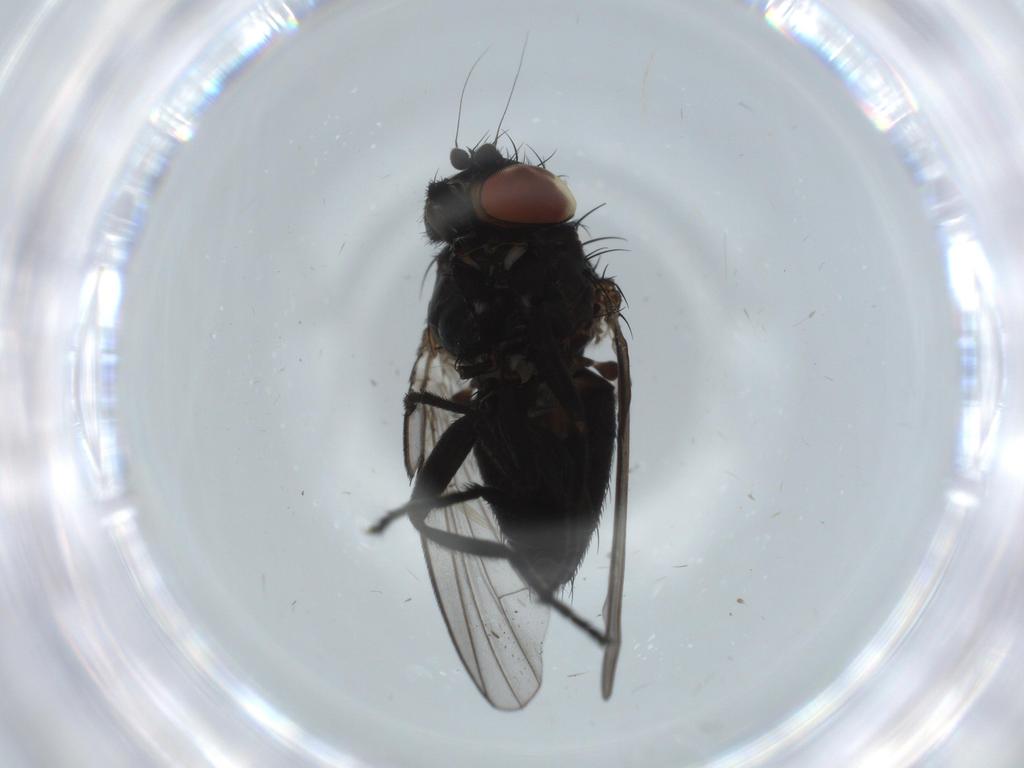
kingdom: Animalia
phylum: Arthropoda
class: Insecta
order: Diptera
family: Milichiidae
